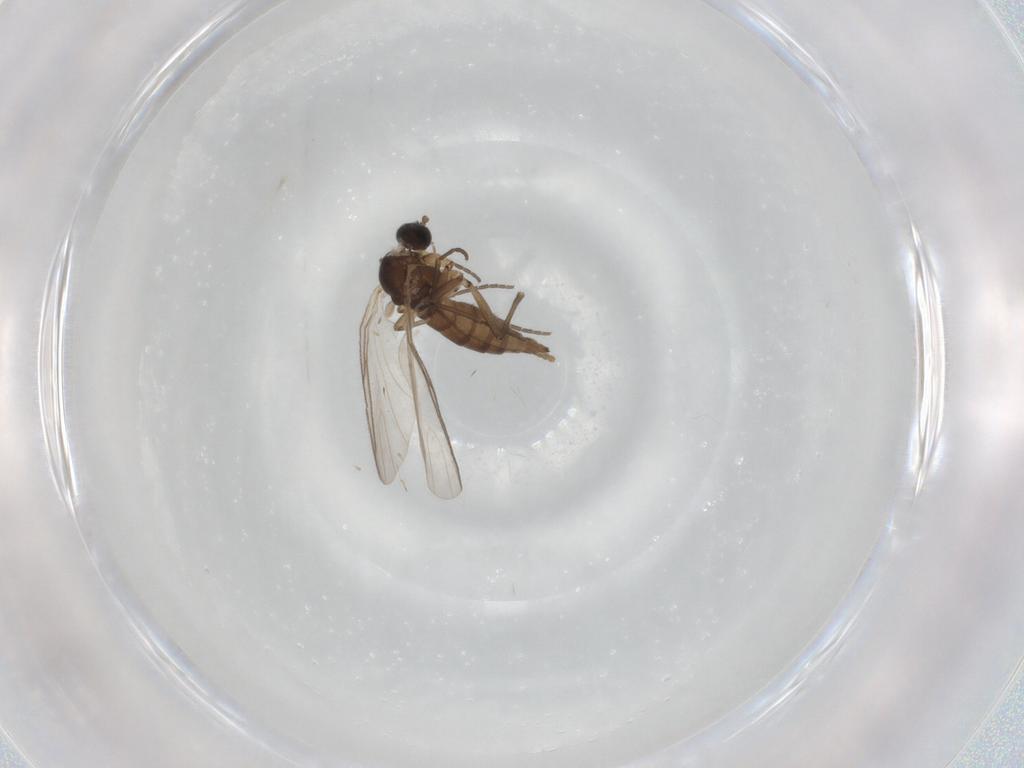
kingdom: Animalia
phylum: Arthropoda
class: Insecta
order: Diptera
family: Sciaridae
